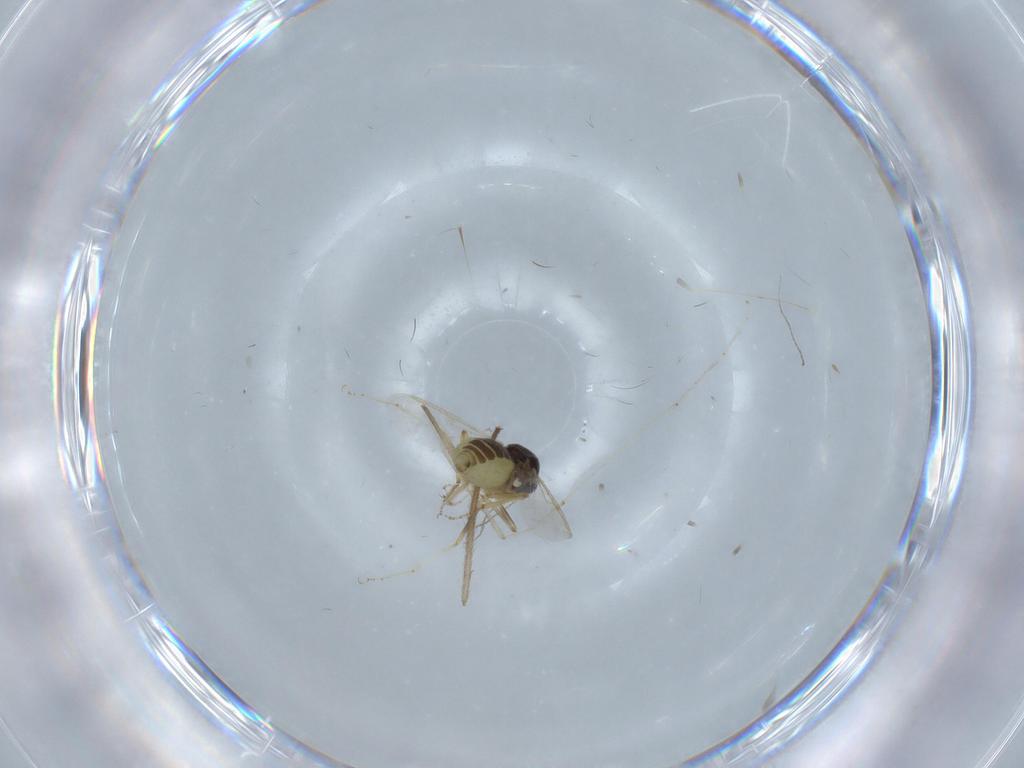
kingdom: Animalia
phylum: Arthropoda
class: Insecta
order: Diptera
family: Ceratopogonidae
